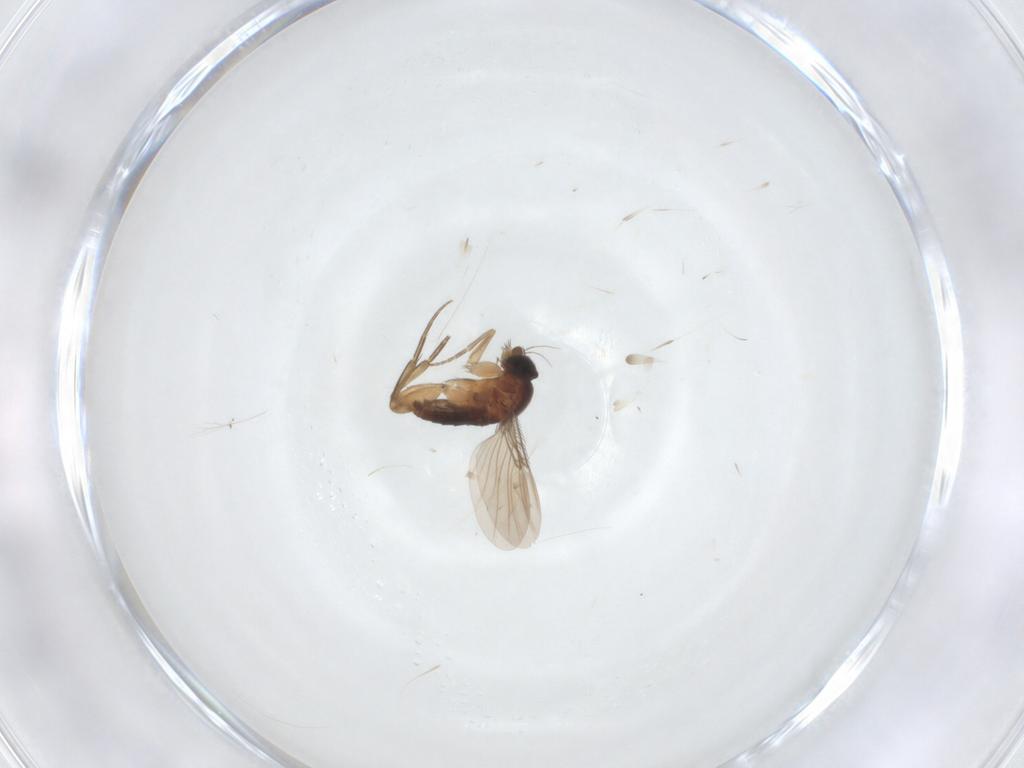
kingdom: Animalia
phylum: Arthropoda
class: Insecta
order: Diptera
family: Phoridae
